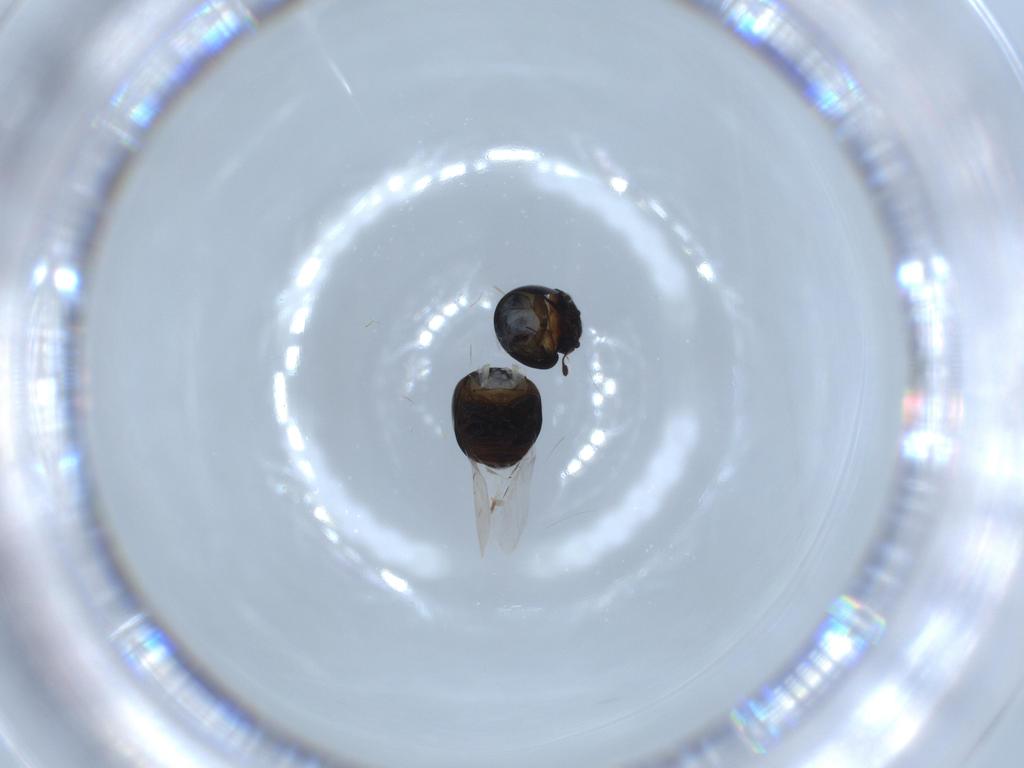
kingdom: Animalia
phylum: Arthropoda
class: Insecta
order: Coleoptera
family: Cybocephalidae
